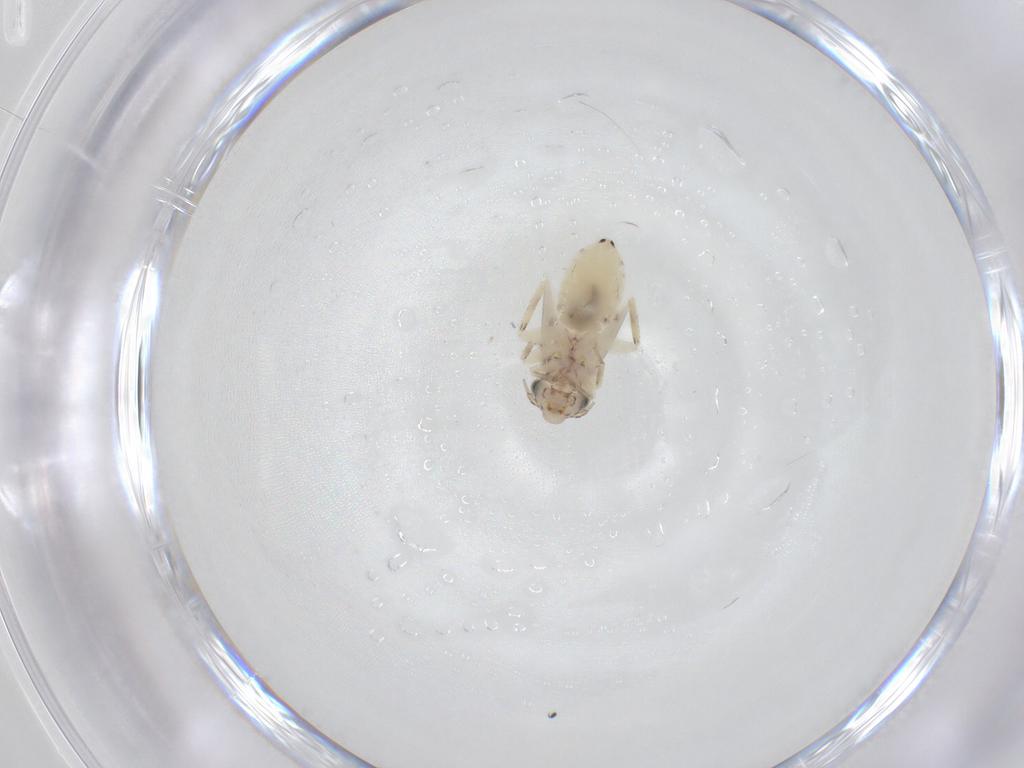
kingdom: Animalia
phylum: Arthropoda
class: Insecta
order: Psocodea
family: Lepidopsocidae
